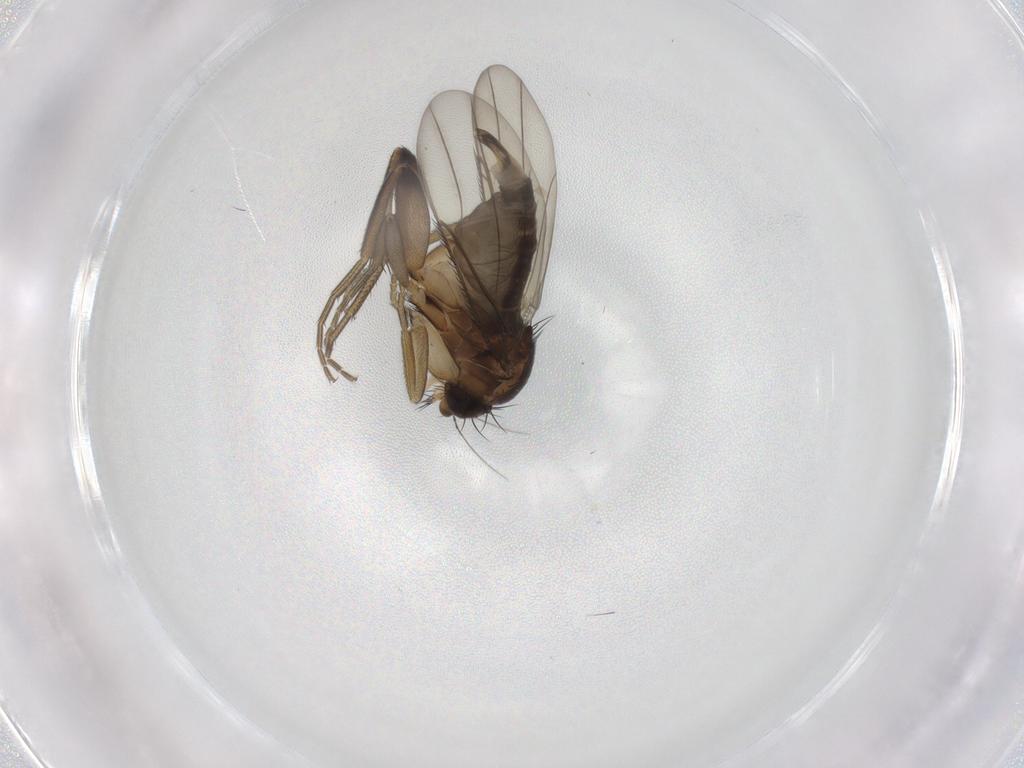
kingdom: Animalia
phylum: Arthropoda
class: Insecta
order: Diptera
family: Phoridae
